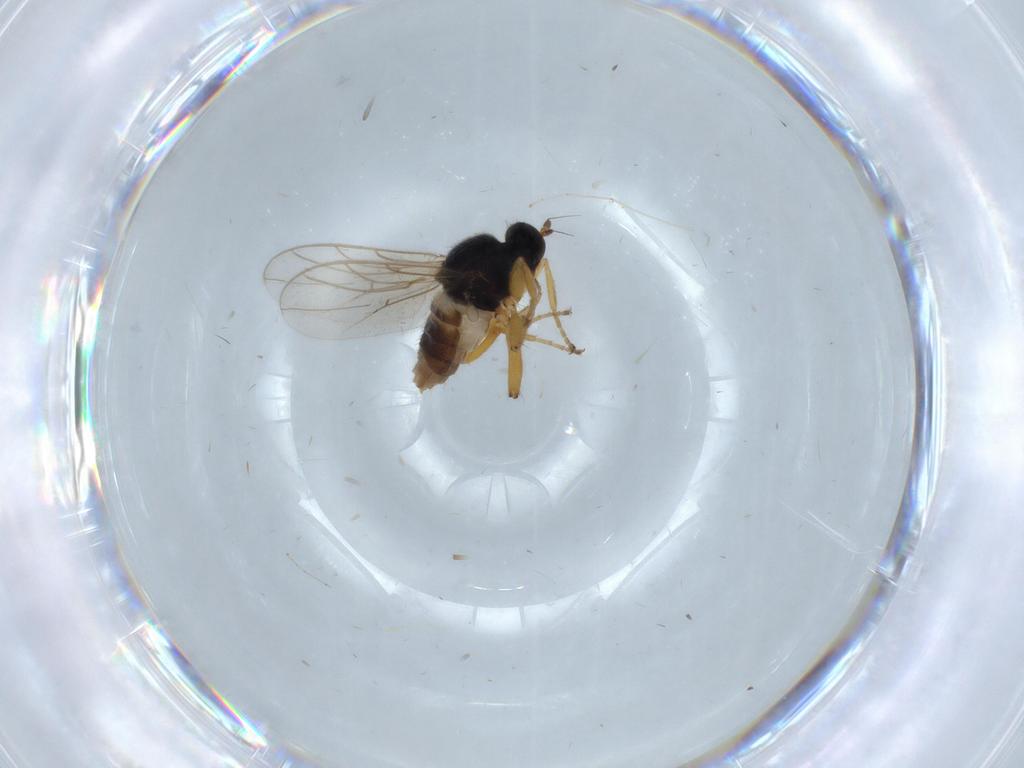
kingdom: Animalia
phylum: Arthropoda
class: Insecta
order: Diptera
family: Hybotidae
